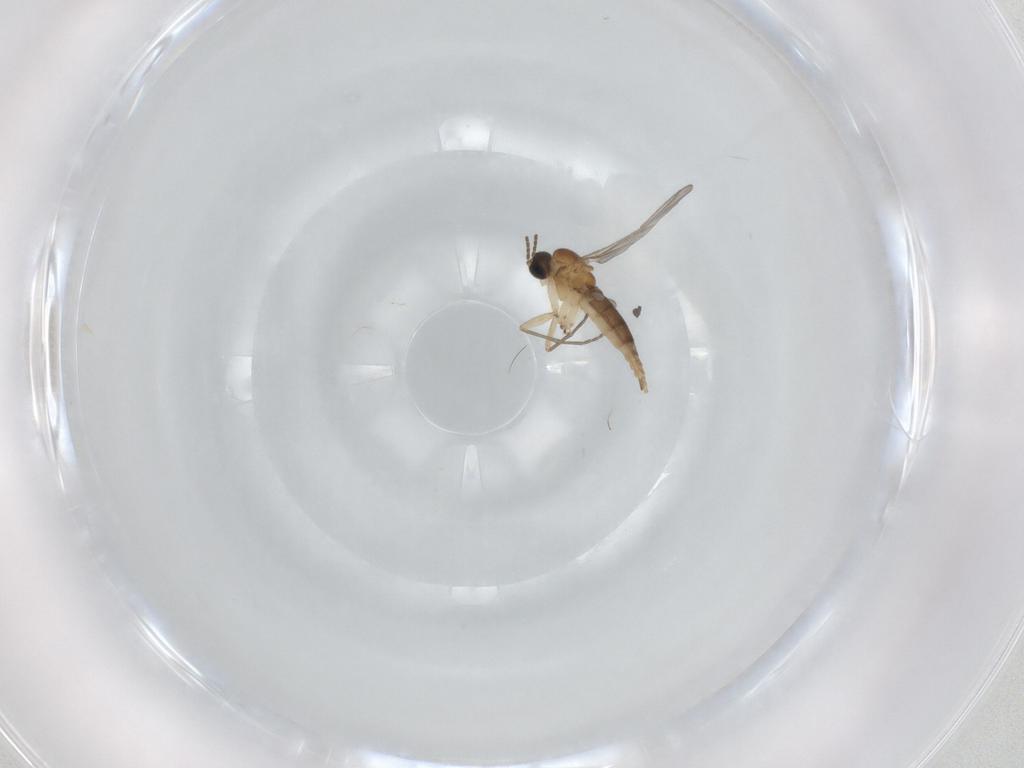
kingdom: Animalia
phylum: Arthropoda
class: Insecta
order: Diptera
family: Sciaridae
